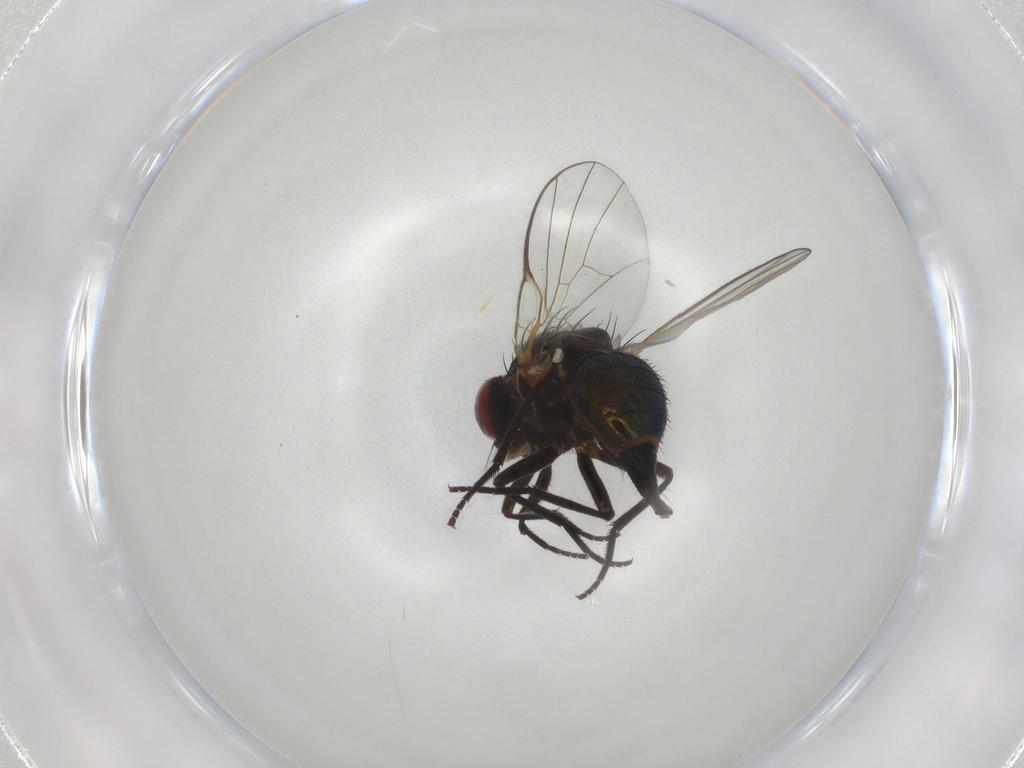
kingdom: Animalia
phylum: Arthropoda
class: Insecta
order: Diptera
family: Agromyzidae
